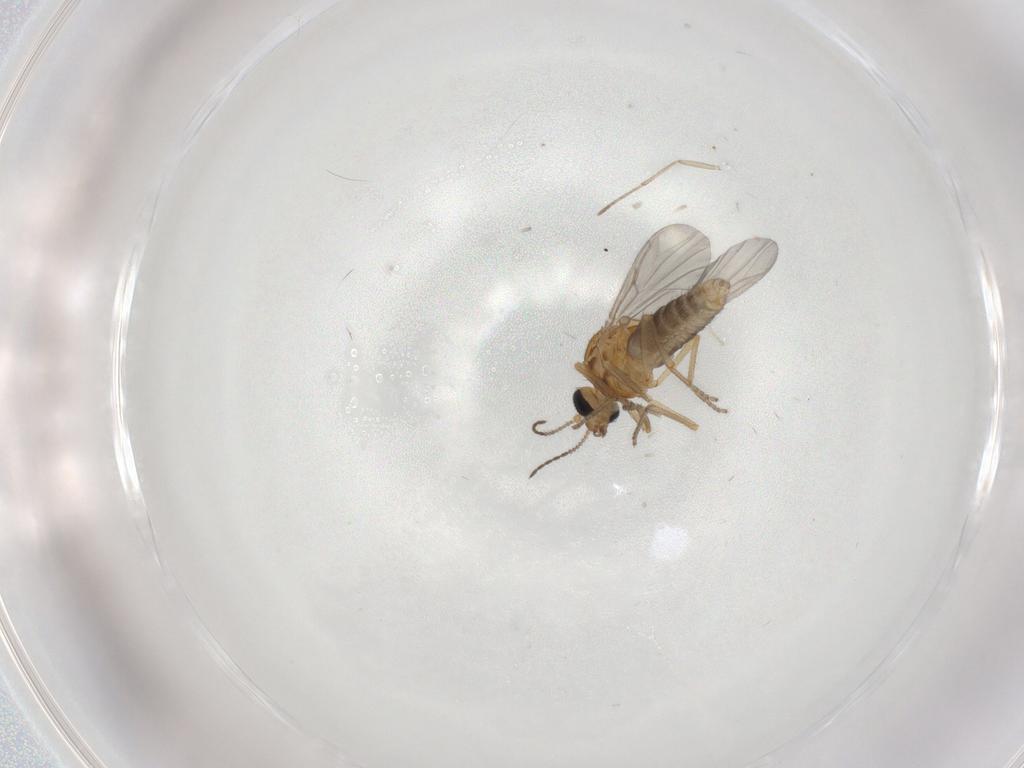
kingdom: Animalia
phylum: Arthropoda
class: Insecta
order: Diptera
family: Ceratopogonidae
